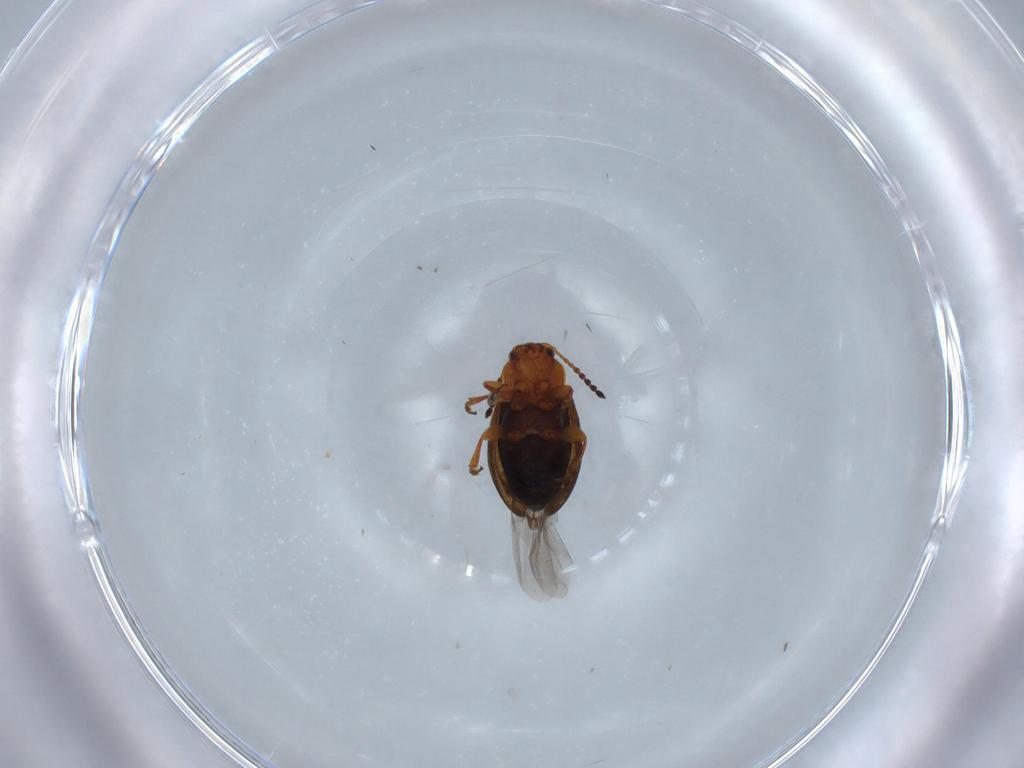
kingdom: Animalia
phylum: Arthropoda
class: Insecta
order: Coleoptera
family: Chrysomelidae
